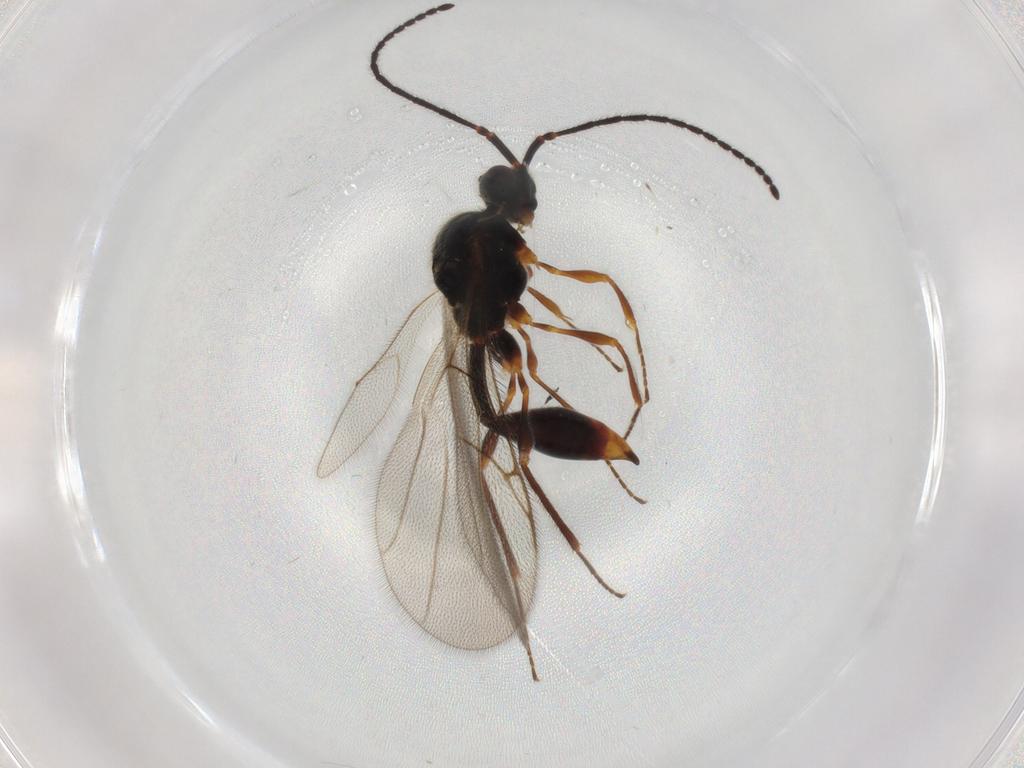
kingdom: Animalia
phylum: Arthropoda
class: Insecta
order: Hymenoptera
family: Diapriidae
